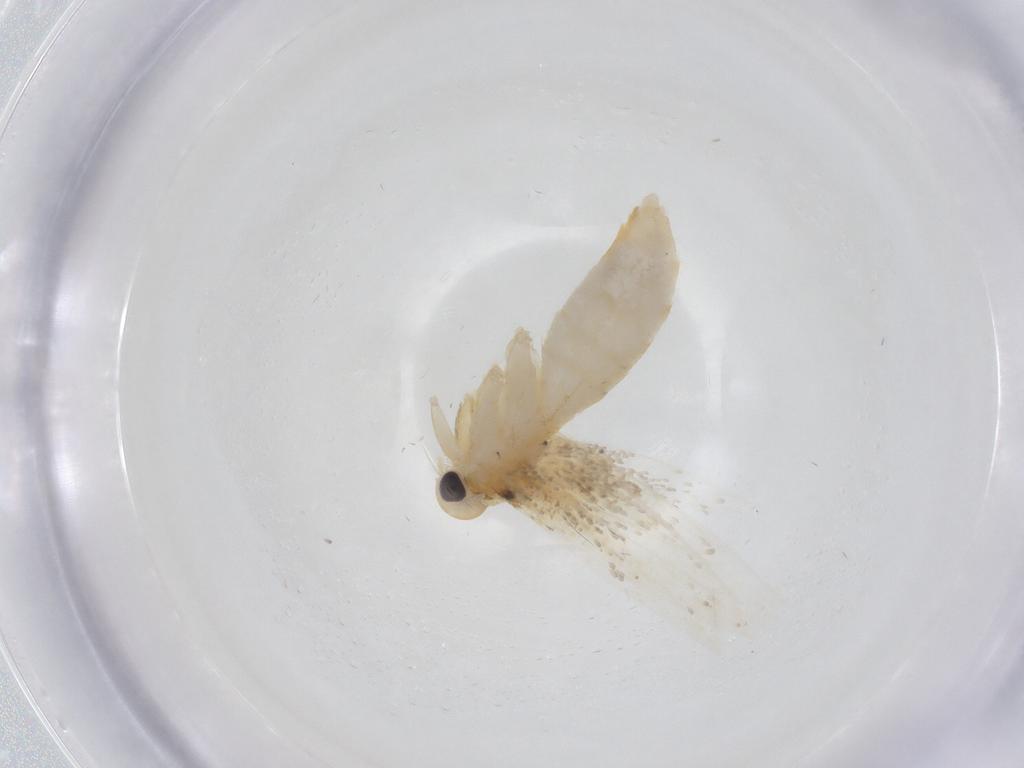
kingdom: Animalia
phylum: Arthropoda
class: Insecta
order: Lepidoptera
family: Erebidae
